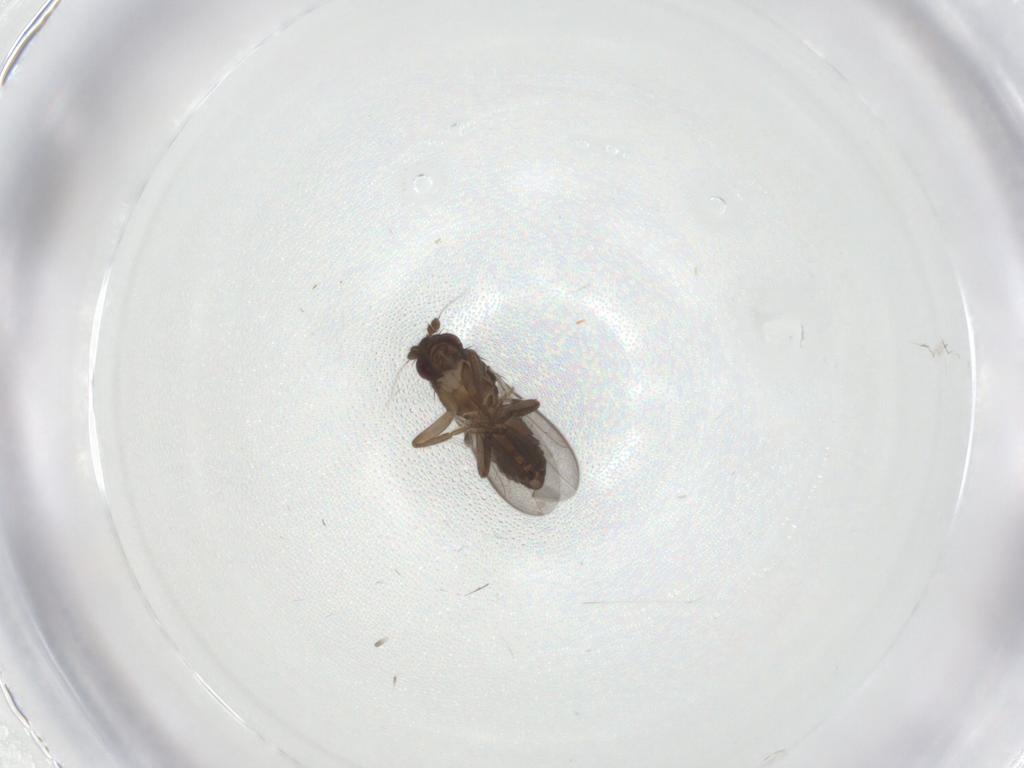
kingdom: Animalia
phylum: Arthropoda
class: Insecta
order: Diptera
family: Sphaeroceridae
